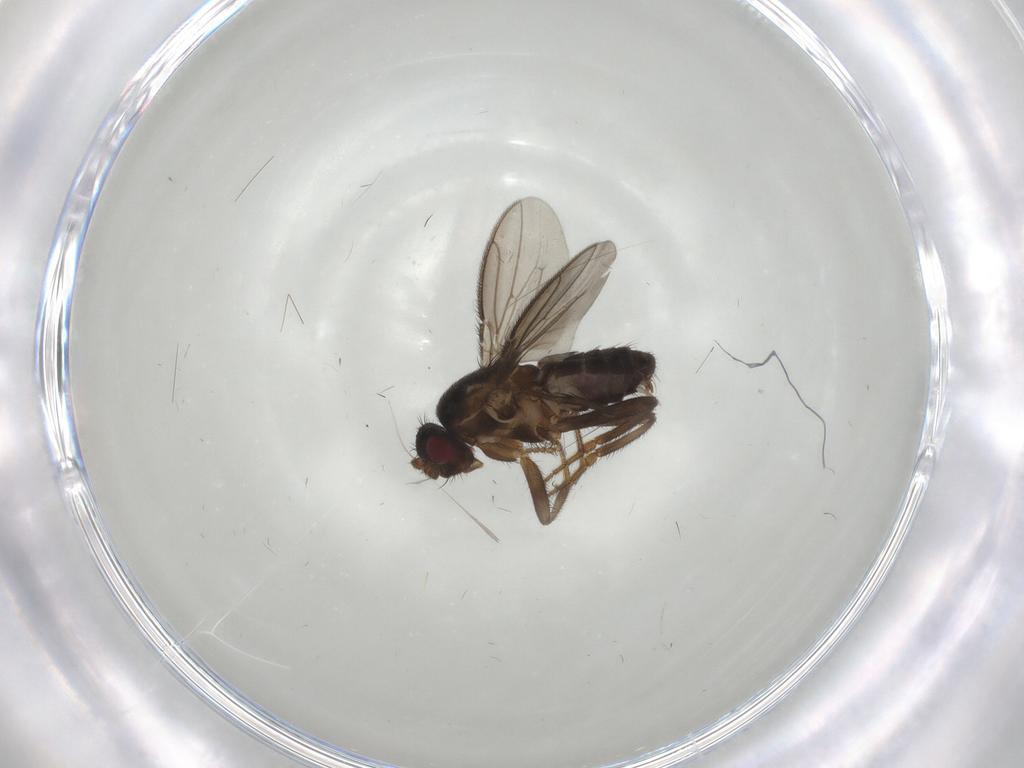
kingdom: Animalia
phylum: Arthropoda
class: Insecta
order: Diptera
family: Sphaeroceridae
